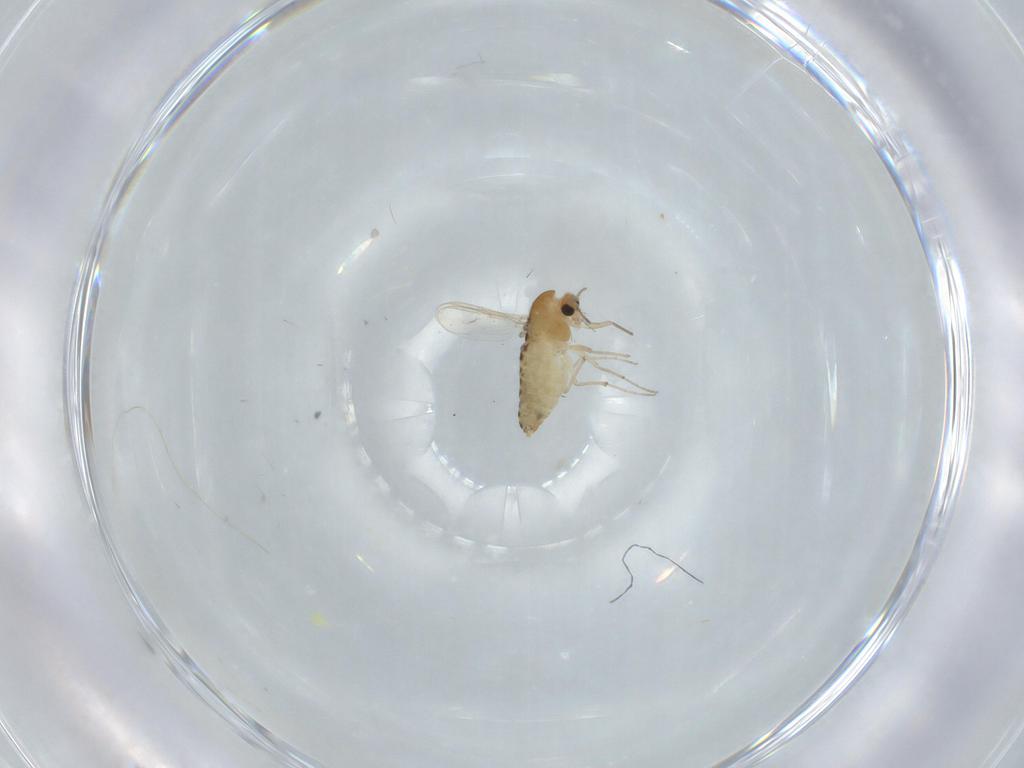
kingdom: Animalia
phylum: Arthropoda
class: Insecta
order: Diptera
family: Chironomidae
